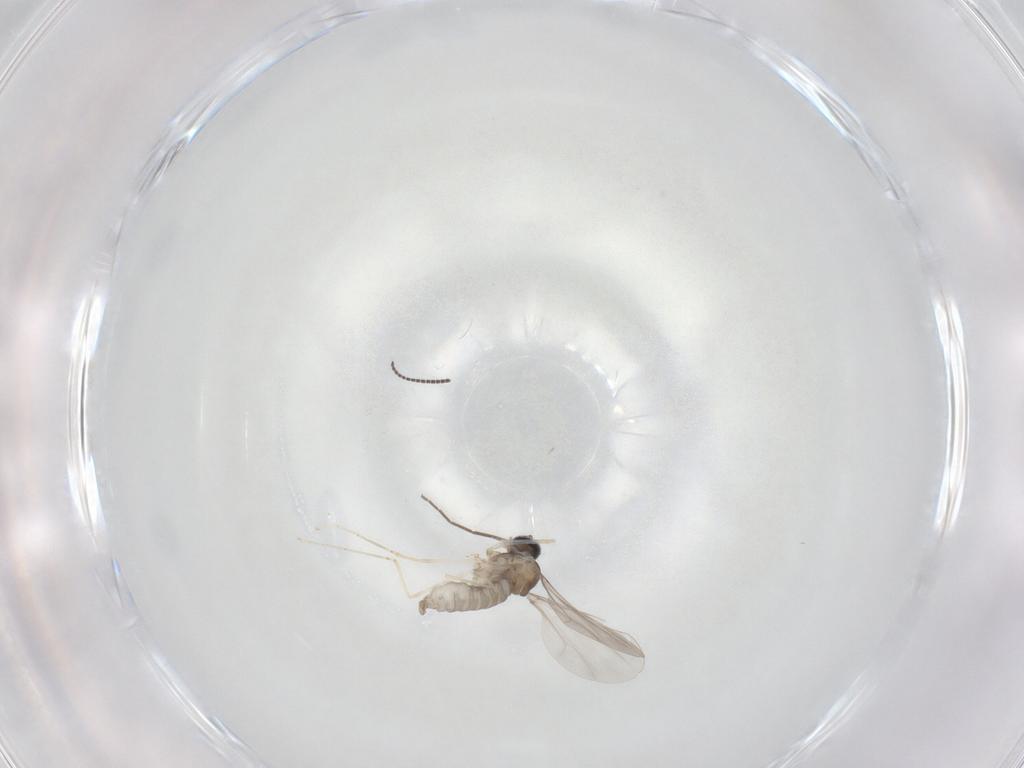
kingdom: Animalia
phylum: Arthropoda
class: Insecta
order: Diptera
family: Cecidomyiidae
